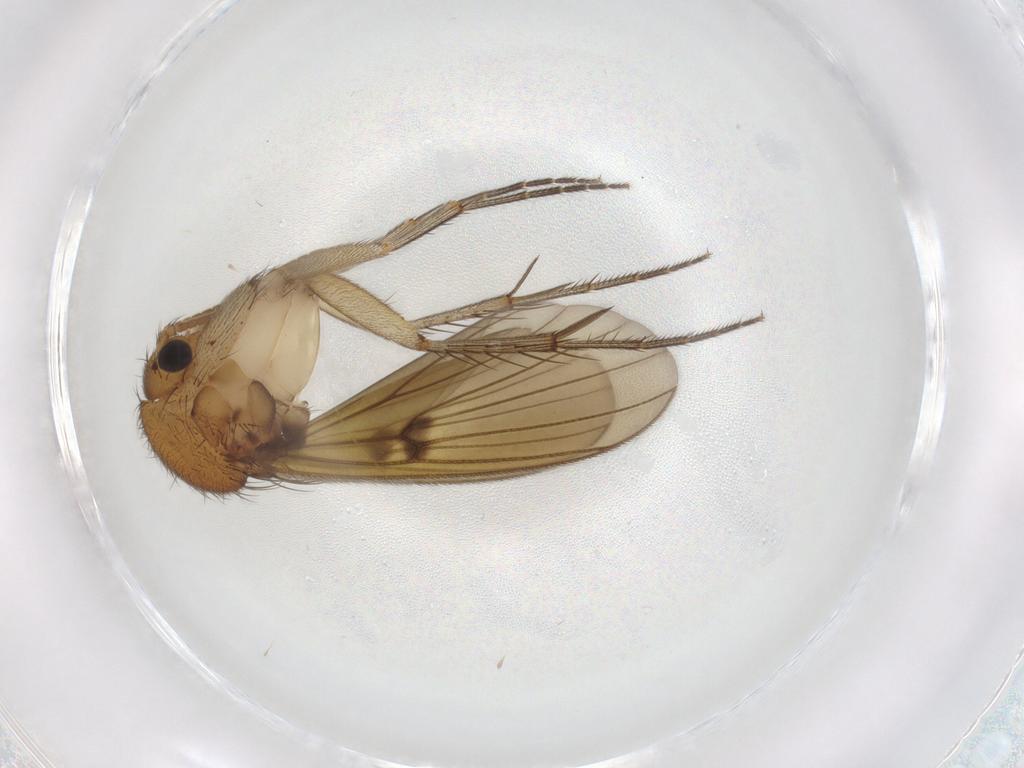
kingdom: Animalia
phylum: Arthropoda
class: Insecta
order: Diptera
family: Mycetophilidae
